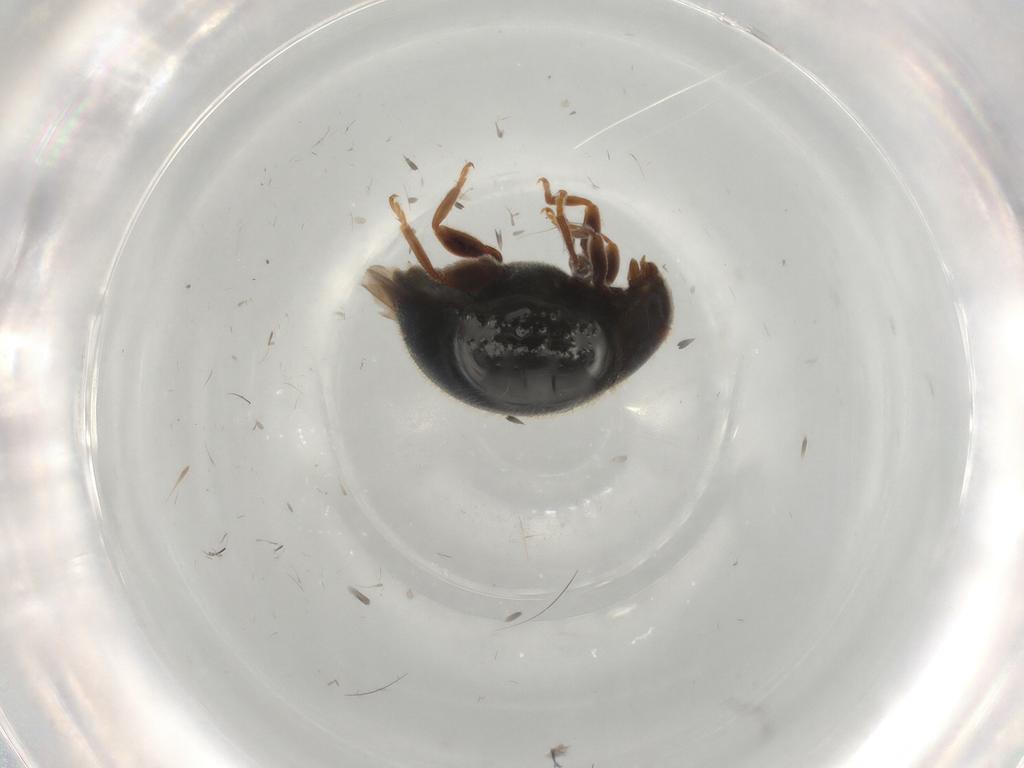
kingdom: Animalia
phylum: Arthropoda
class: Insecta
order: Coleoptera
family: Coccinellidae
